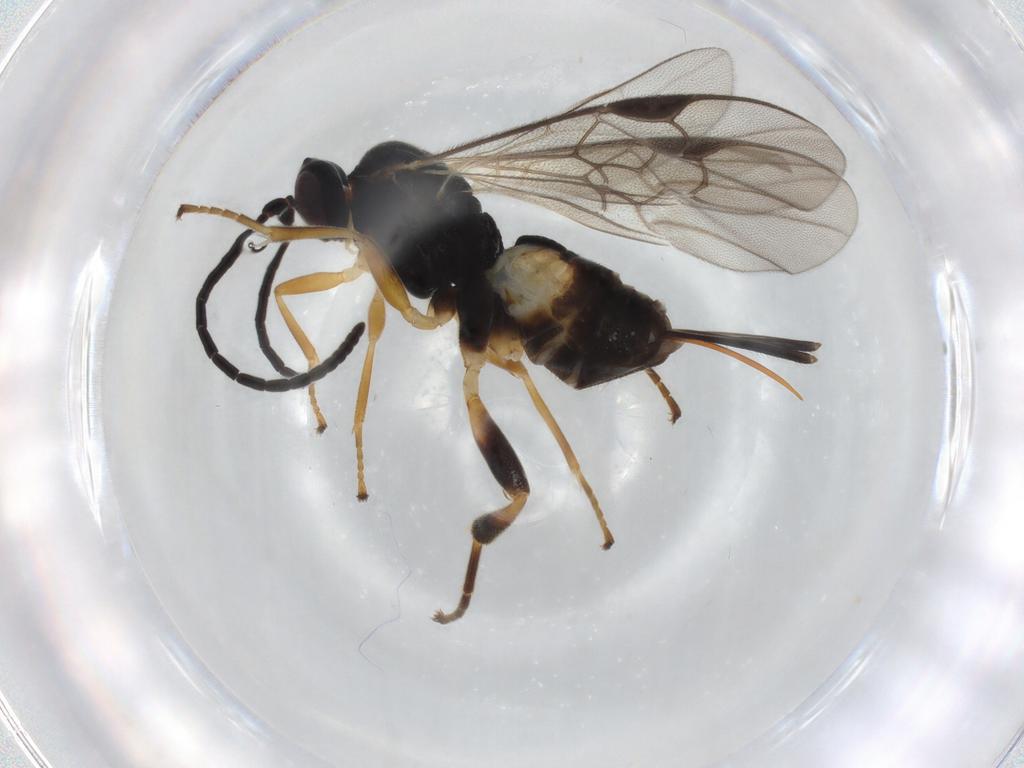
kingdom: Animalia
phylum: Arthropoda
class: Insecta
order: Hymenoptera
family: Braconidae
